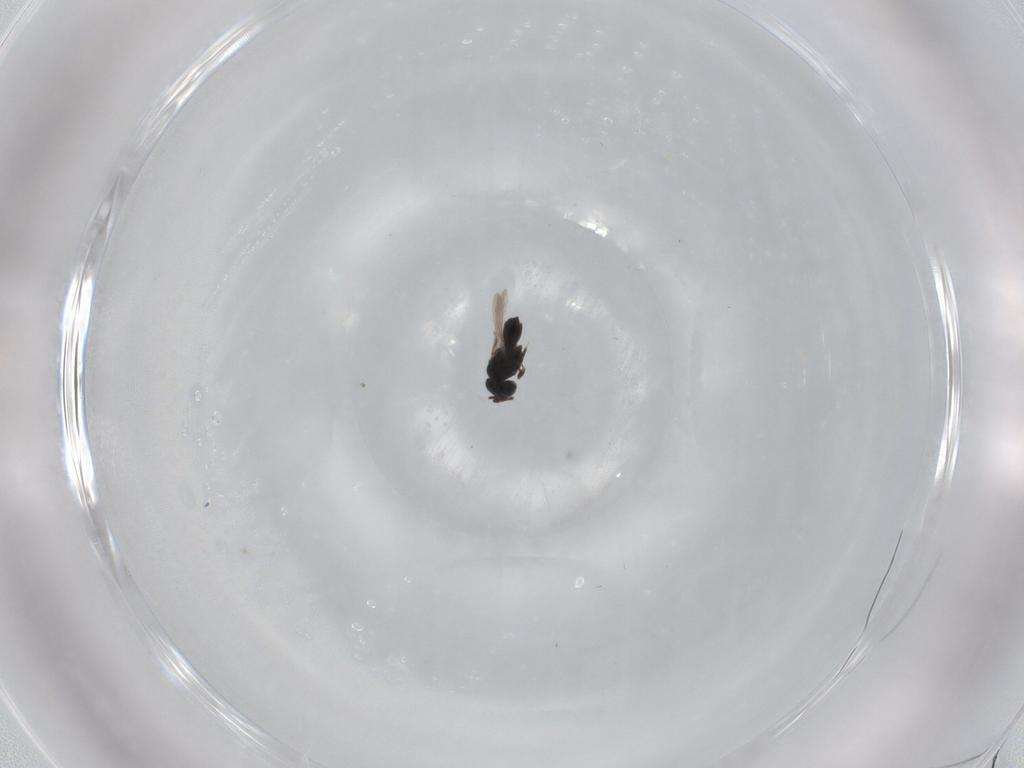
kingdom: Animalia
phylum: Arthropoda
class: Insecta
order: Hymenoptera
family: Scelionidae
